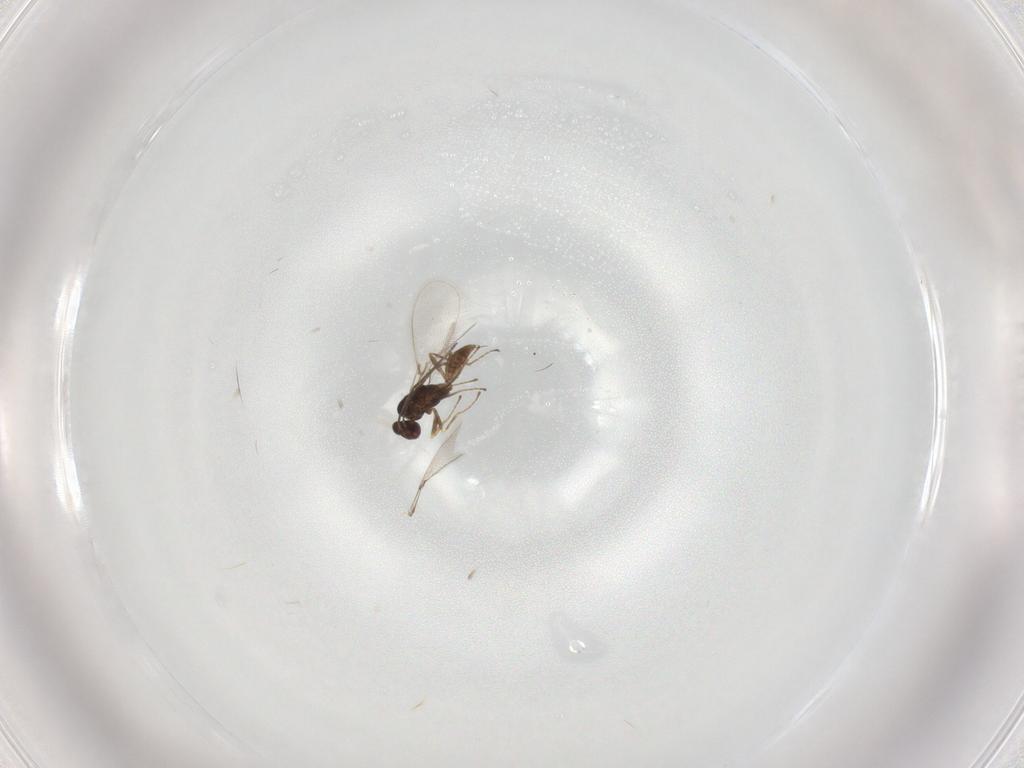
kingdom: Animalia
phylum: Arthropoda
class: Insecta
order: Hymenoptera
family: Mymaridae
